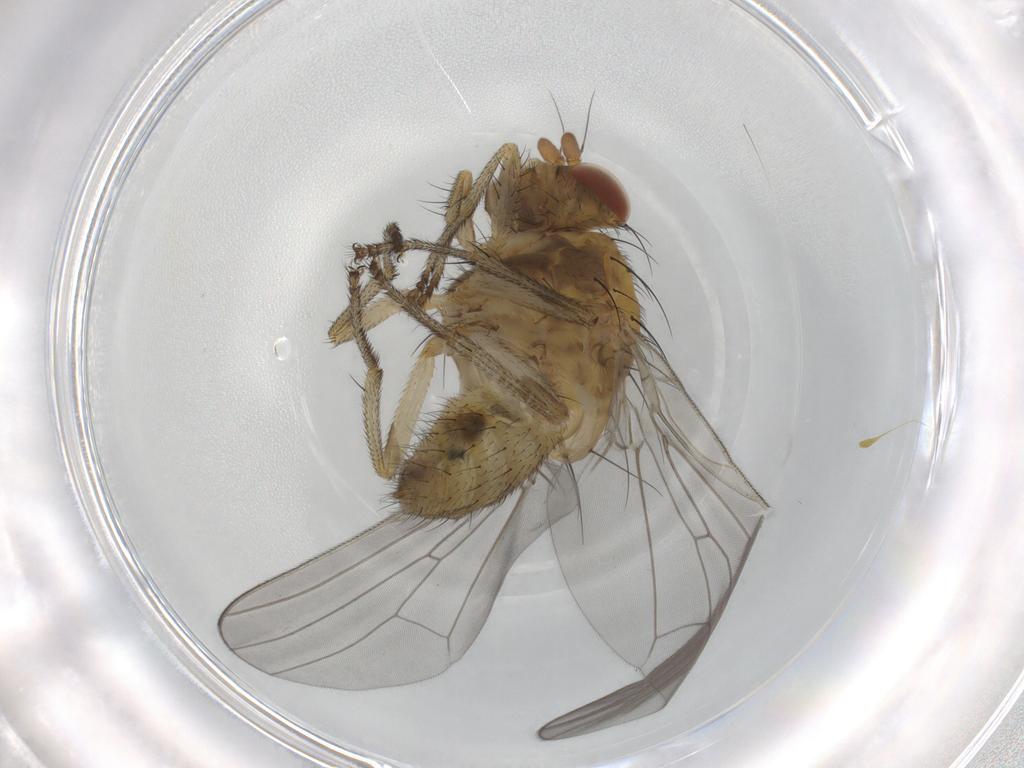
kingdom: Animalia
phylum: Arthropoda
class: Insecta
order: Diptera
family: Lauxaniidae
